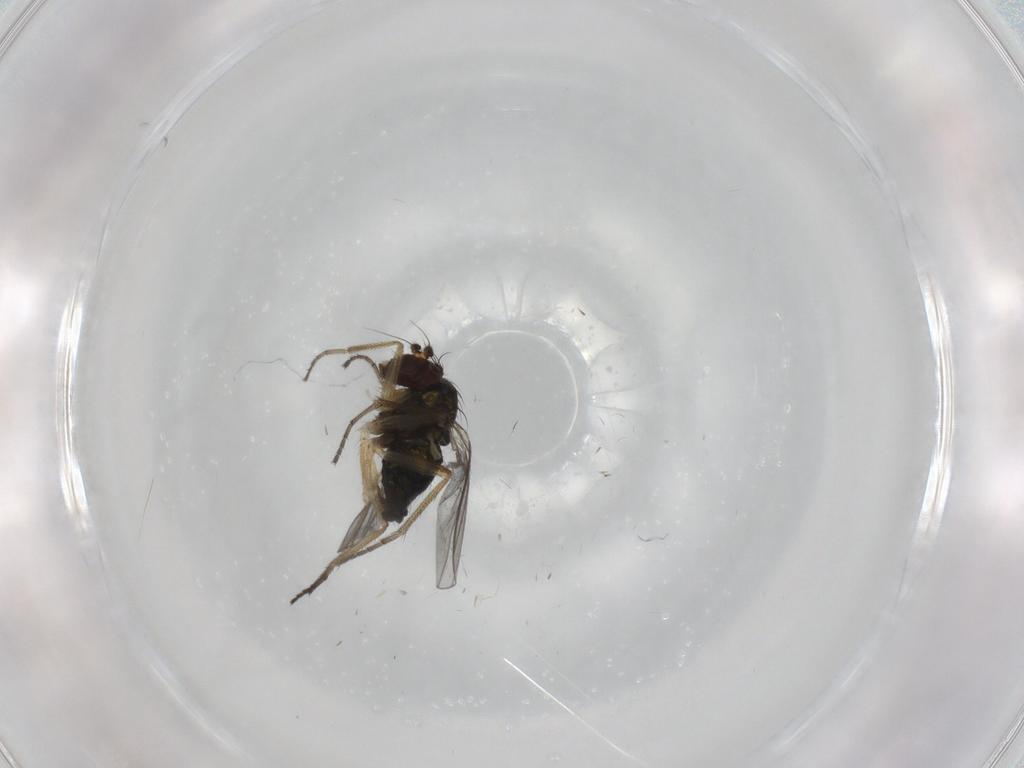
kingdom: Animalia
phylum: Arthropoda
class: Insecta
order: Diptera
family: Ceratopogonidae
